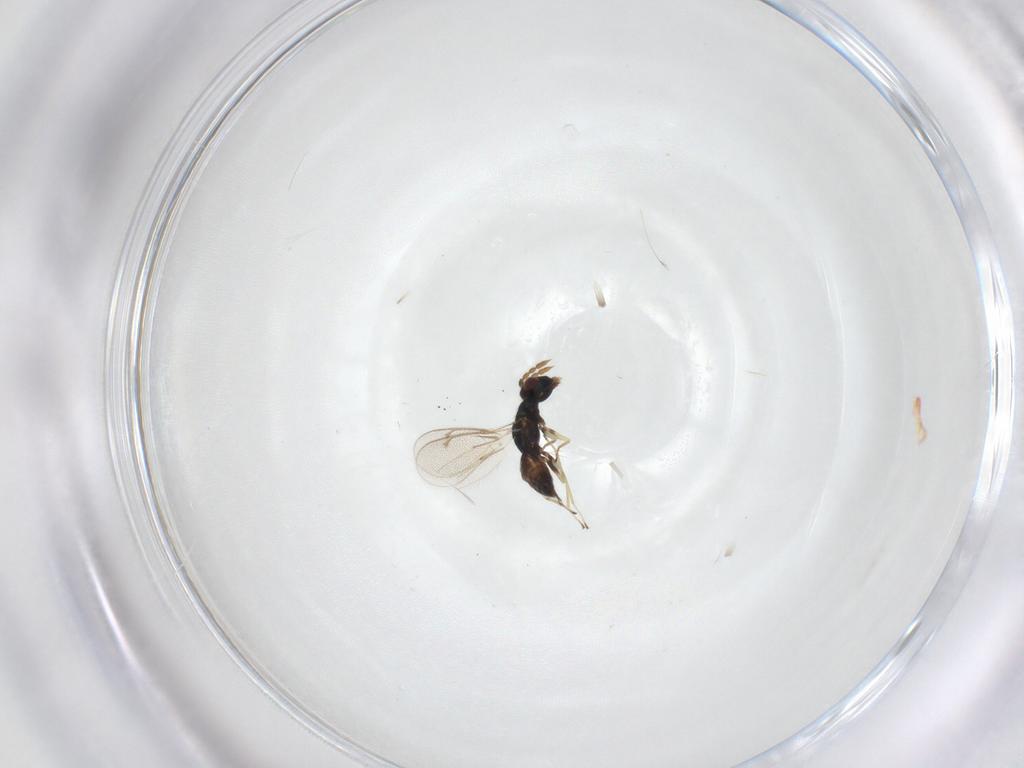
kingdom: Animalia
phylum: Arthropoda
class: Insecta
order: Hymenoptera
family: Eulophidae
